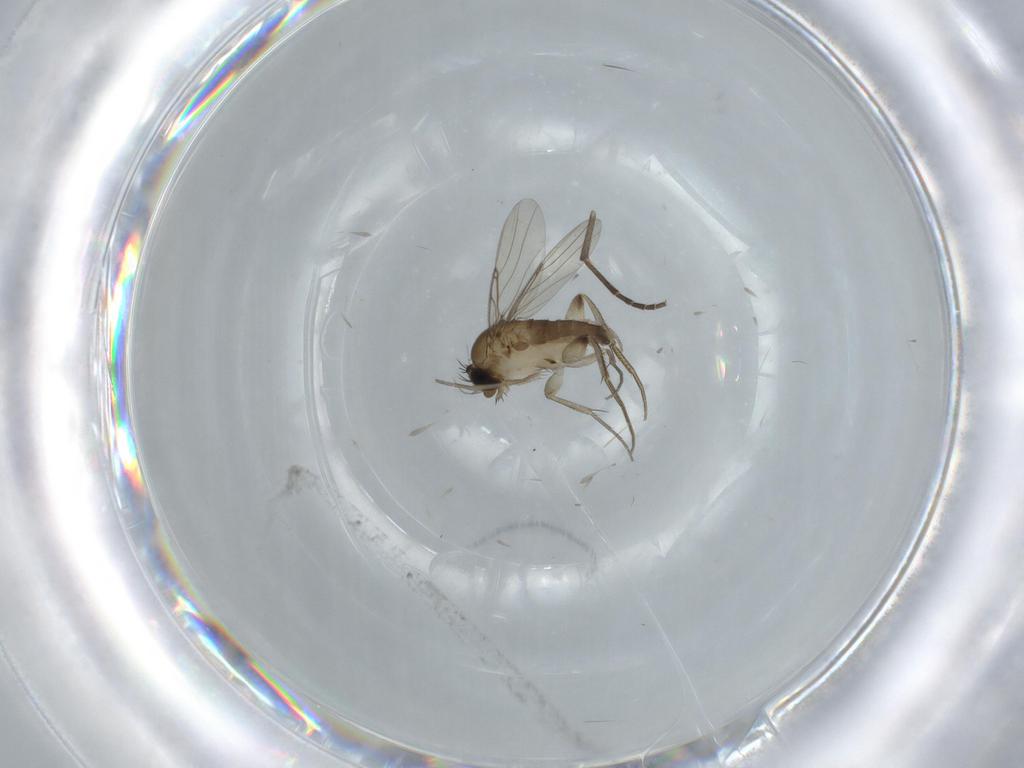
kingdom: Animalia
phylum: Arthropoda
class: Insecta
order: Diptera
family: Phoridae
